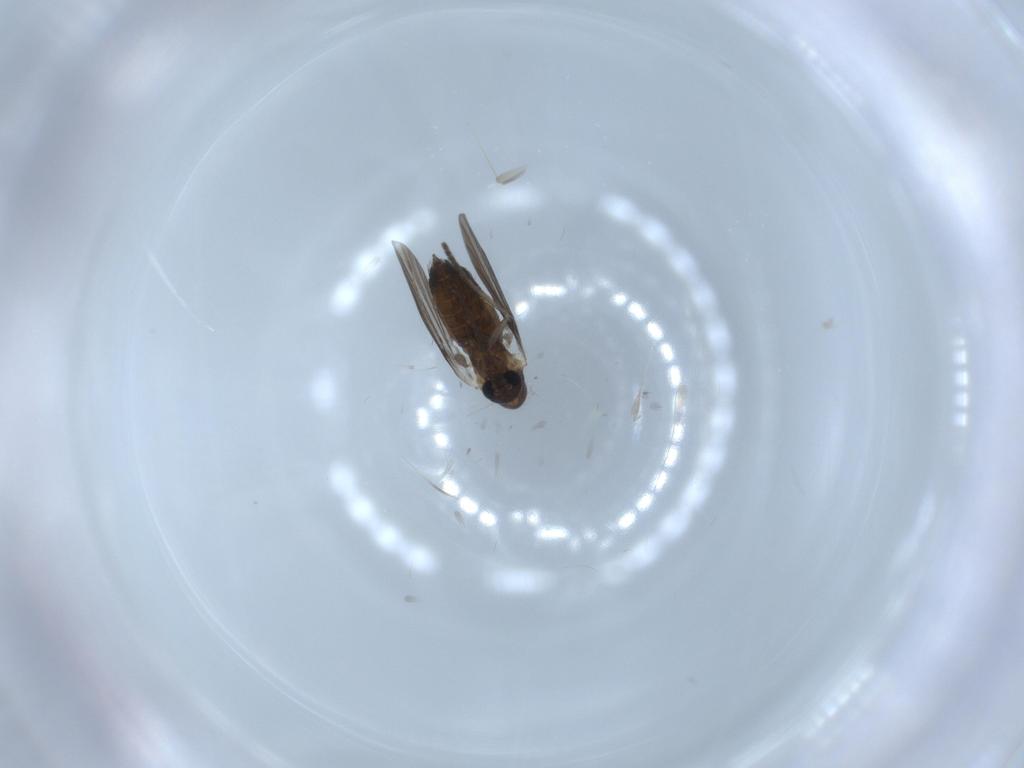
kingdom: Animalia
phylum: Arthropoda
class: Insecta
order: Diptera
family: Cecidomyiidae
